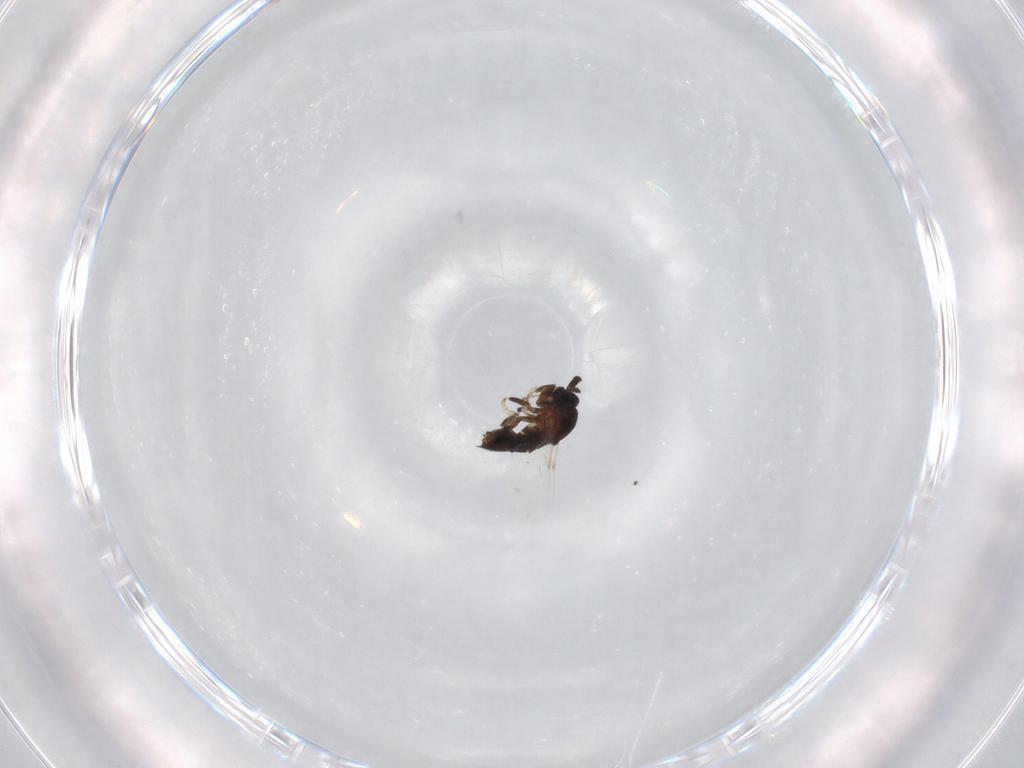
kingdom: Animalia
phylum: Arthropoda
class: Insecta
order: Diptera
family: Scatopsidae
